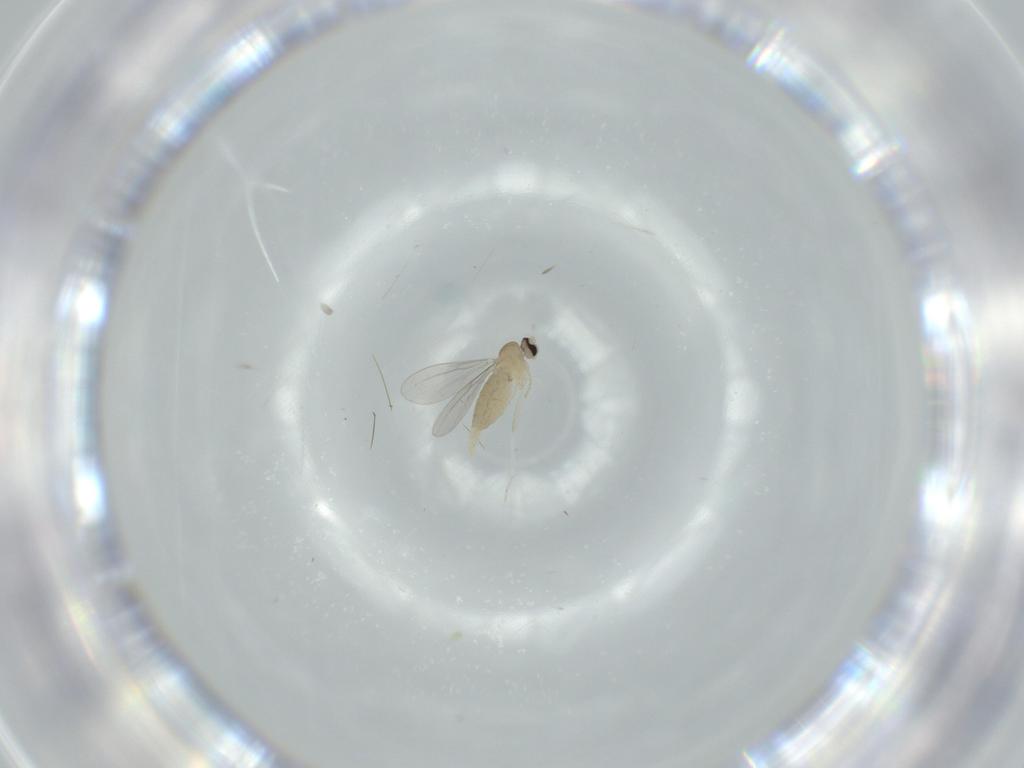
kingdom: Animalia
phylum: Arthropoda
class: Insecta
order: Diptera
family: Cecidomyiidae
